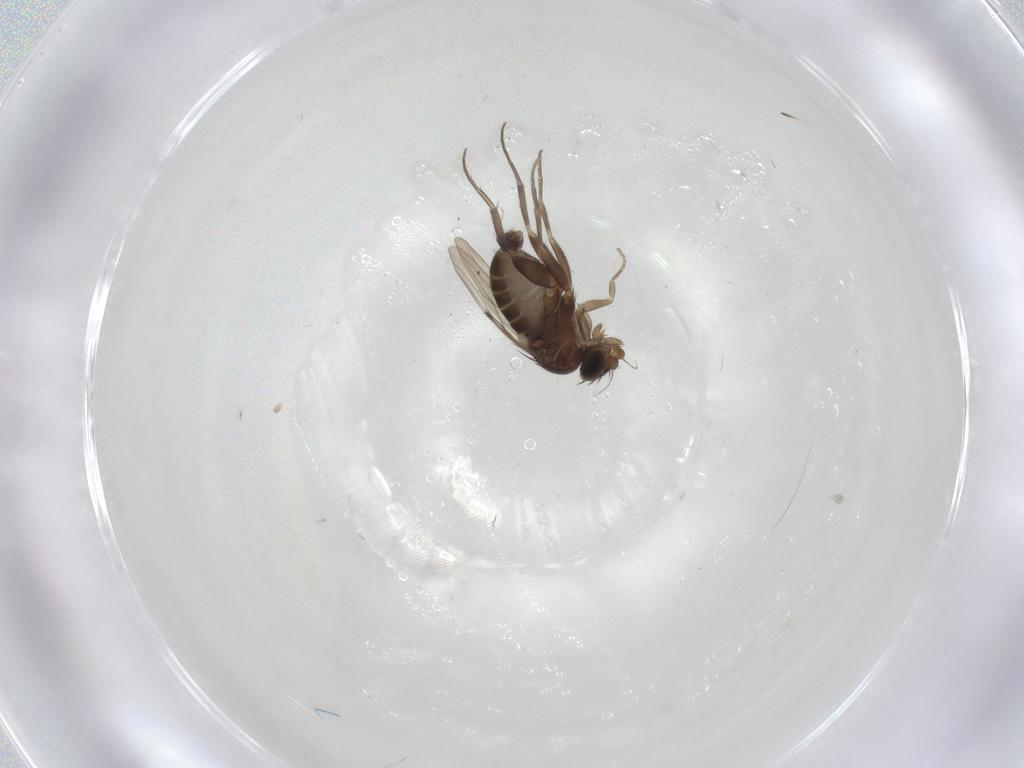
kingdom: Animalia
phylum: Arthropoda
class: Insecta
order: Diptera
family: Phoridae
